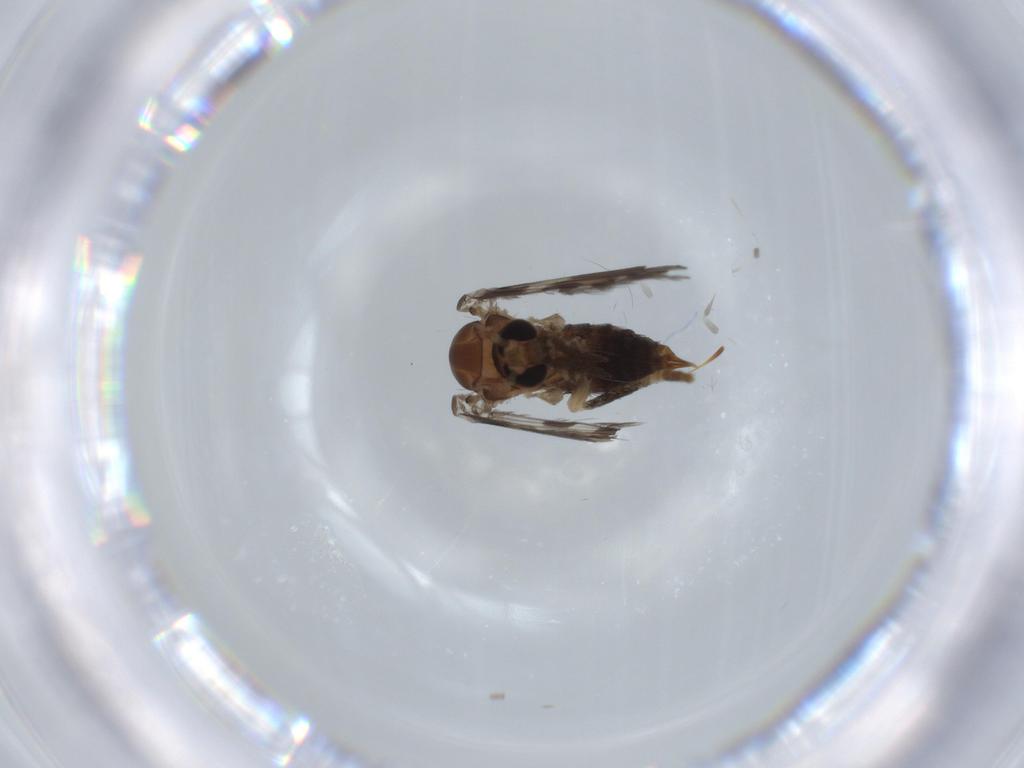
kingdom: Animalia
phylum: Arthropoda
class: Insecta
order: Diptera
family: Psychodidae
